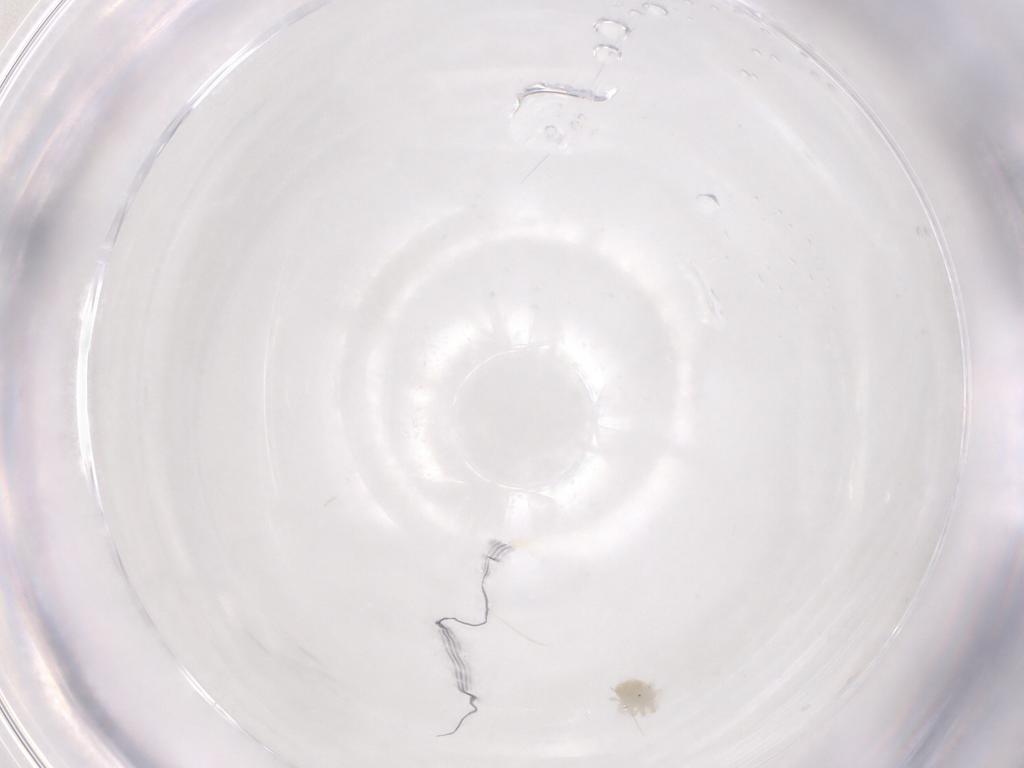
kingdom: Animalia
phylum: Arthropoda
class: Arachnida
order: Trombidiformes
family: Anystidae
